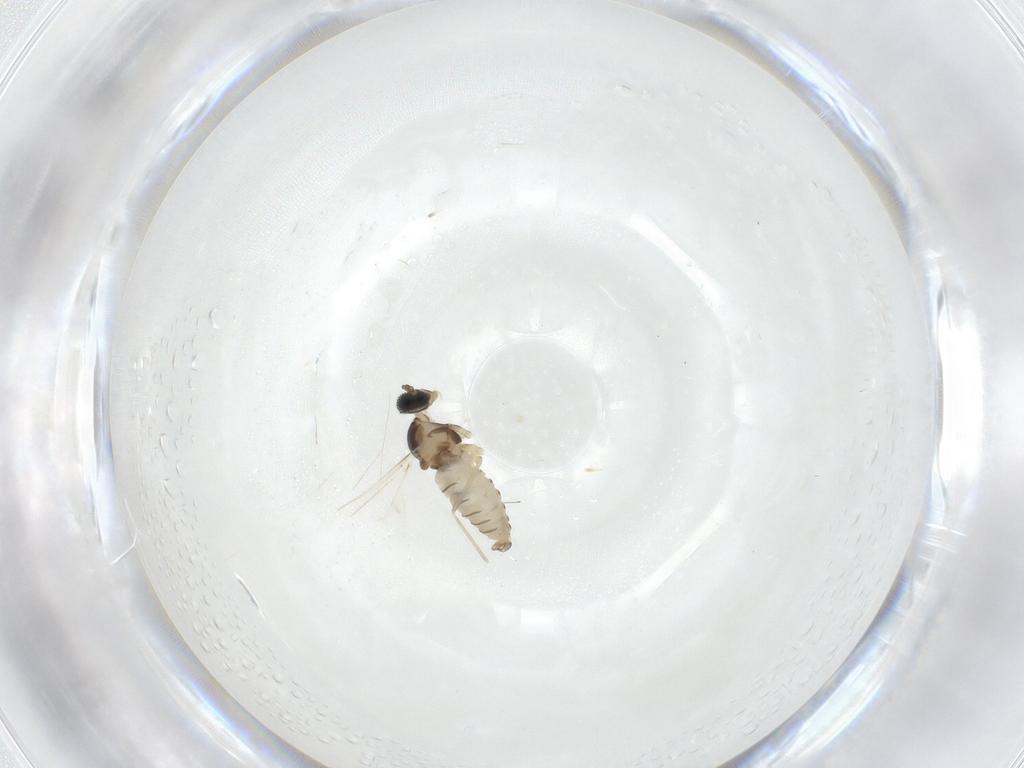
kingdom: Animalia
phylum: Arthropoda
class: Insecta
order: Diptera
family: Cecidomyiidae
